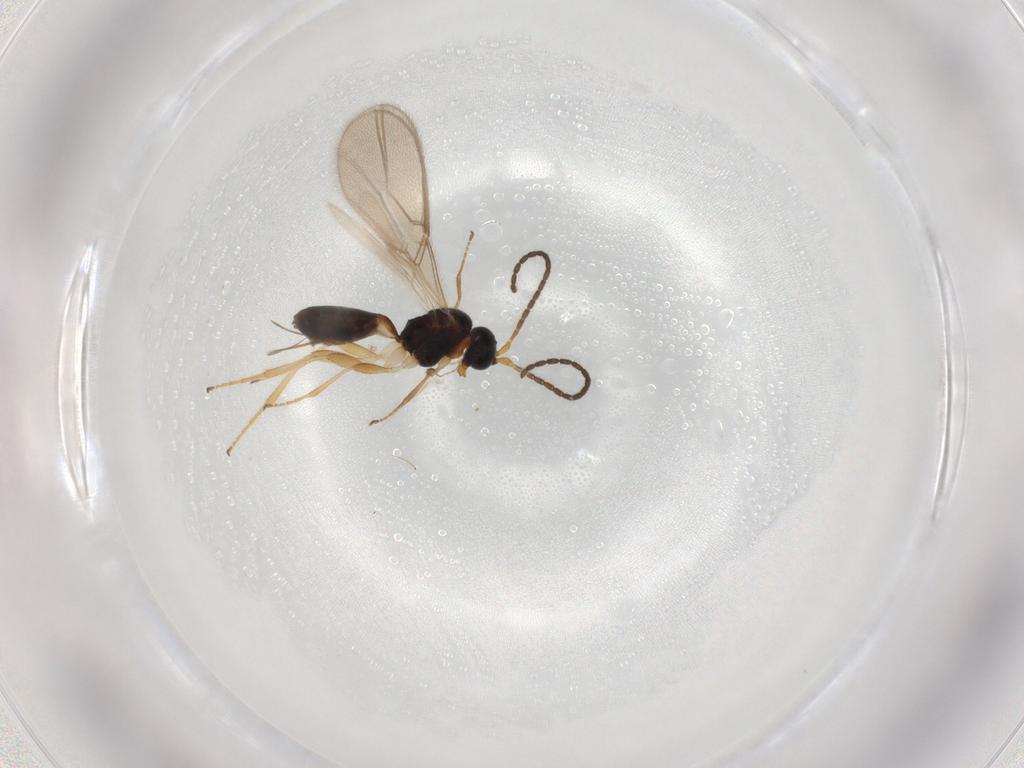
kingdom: Animalia
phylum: Arthropoda
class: Insecta
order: Hymenoptera
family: Braconidae
